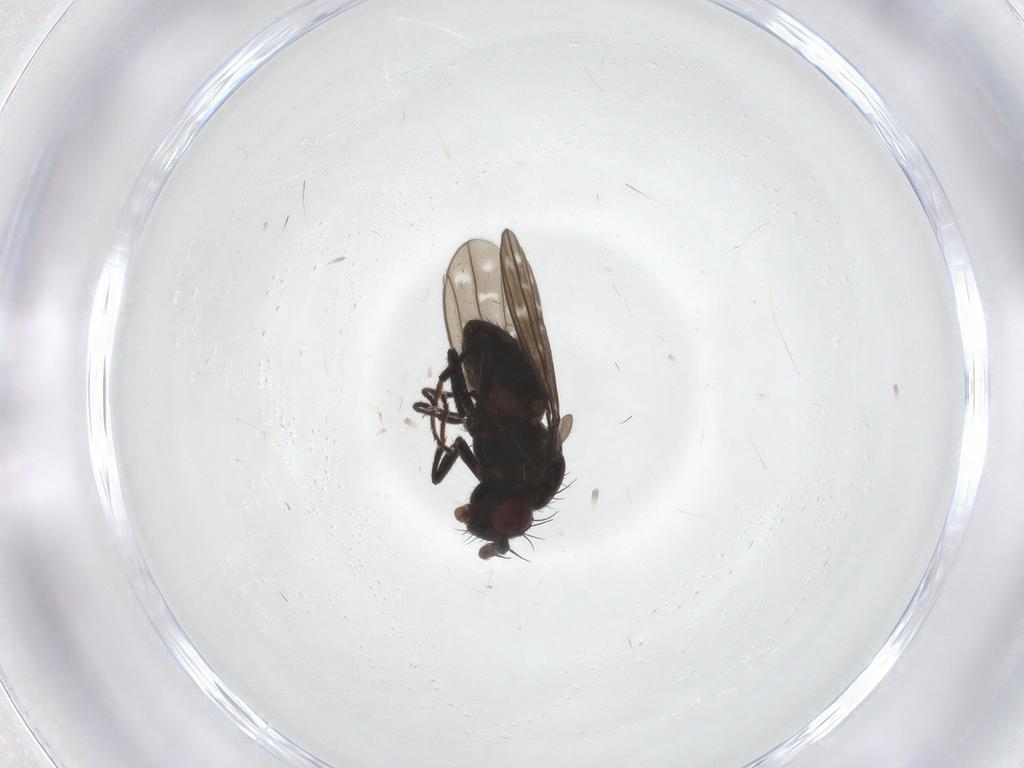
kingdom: Animalia
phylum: Arthropoda
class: Insecta
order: Diptera
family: Ephydridae
